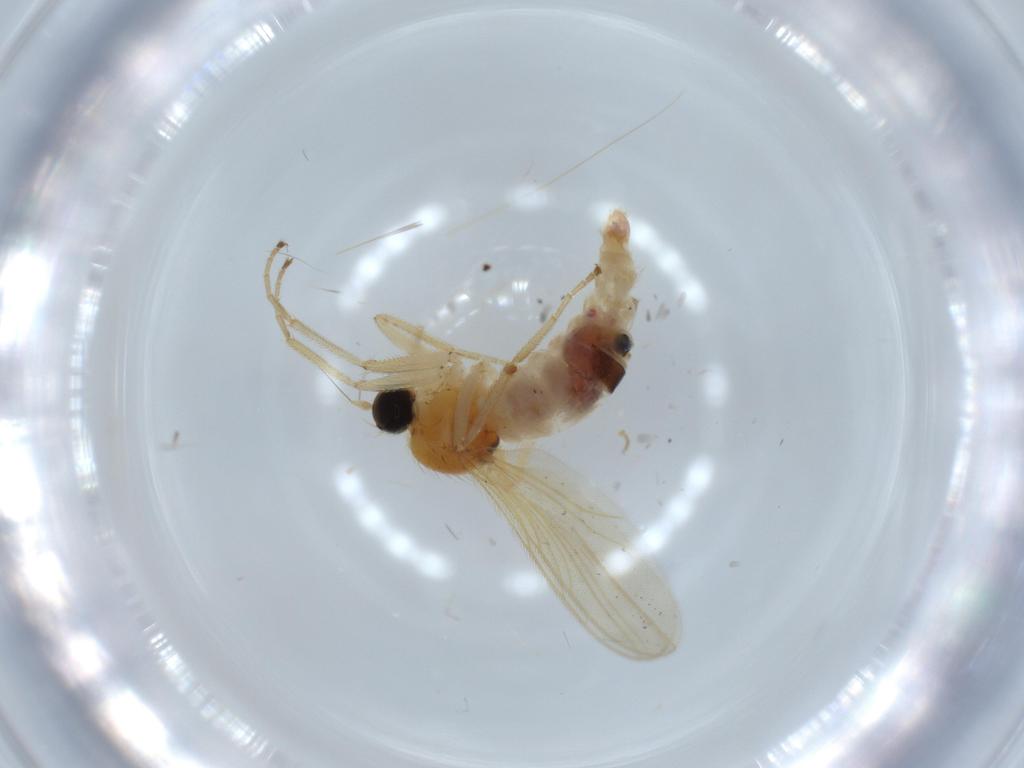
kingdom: Animalia
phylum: Arthropoda
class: Insecta
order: Diptera
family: Hybotidae
